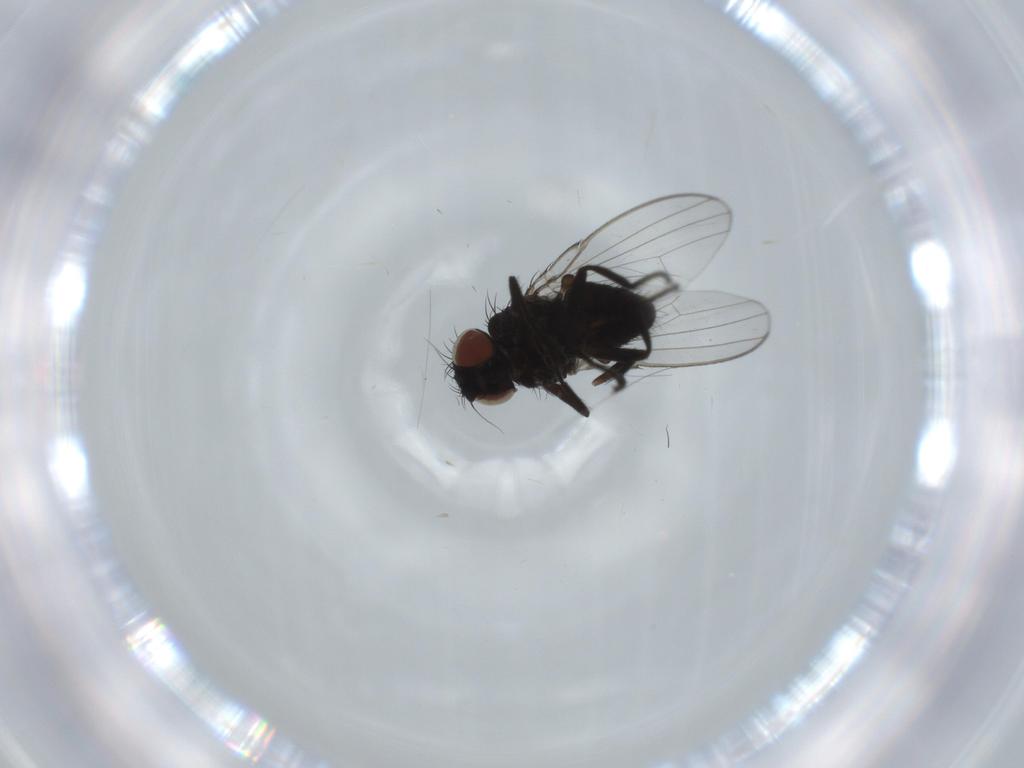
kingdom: Animalia
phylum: Arthropoda
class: Insecta
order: Diptera
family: Milichiidae
